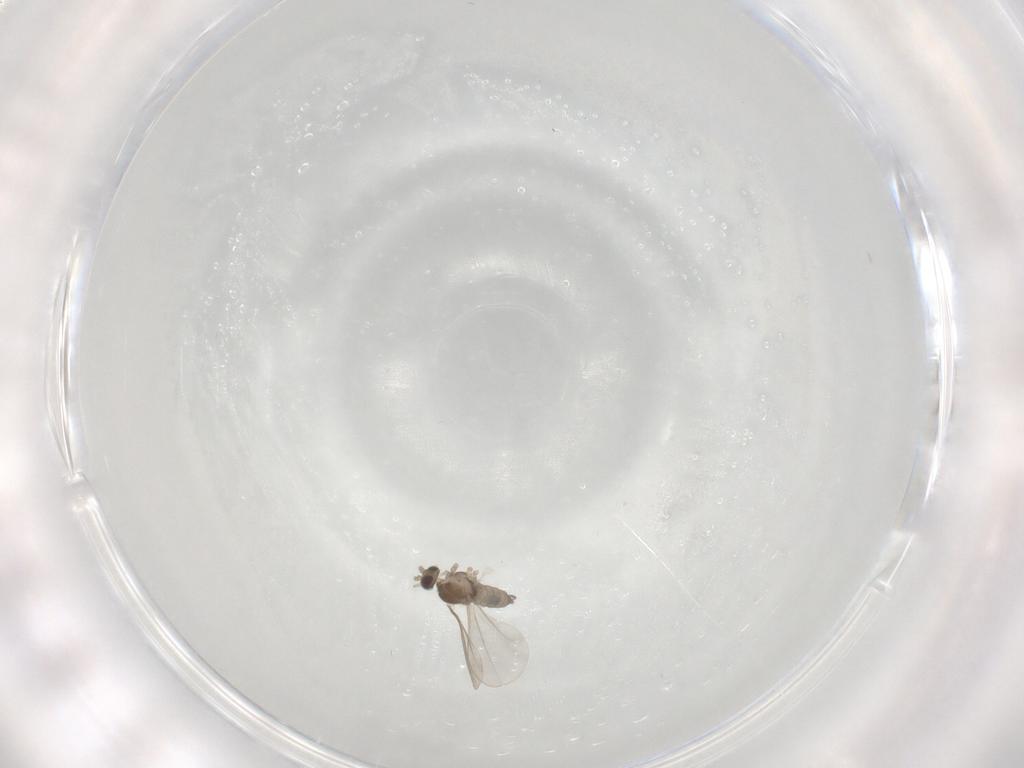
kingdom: Animalia
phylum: Arthropoda
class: Insecta
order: Diptera
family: Cecidomyiidae
